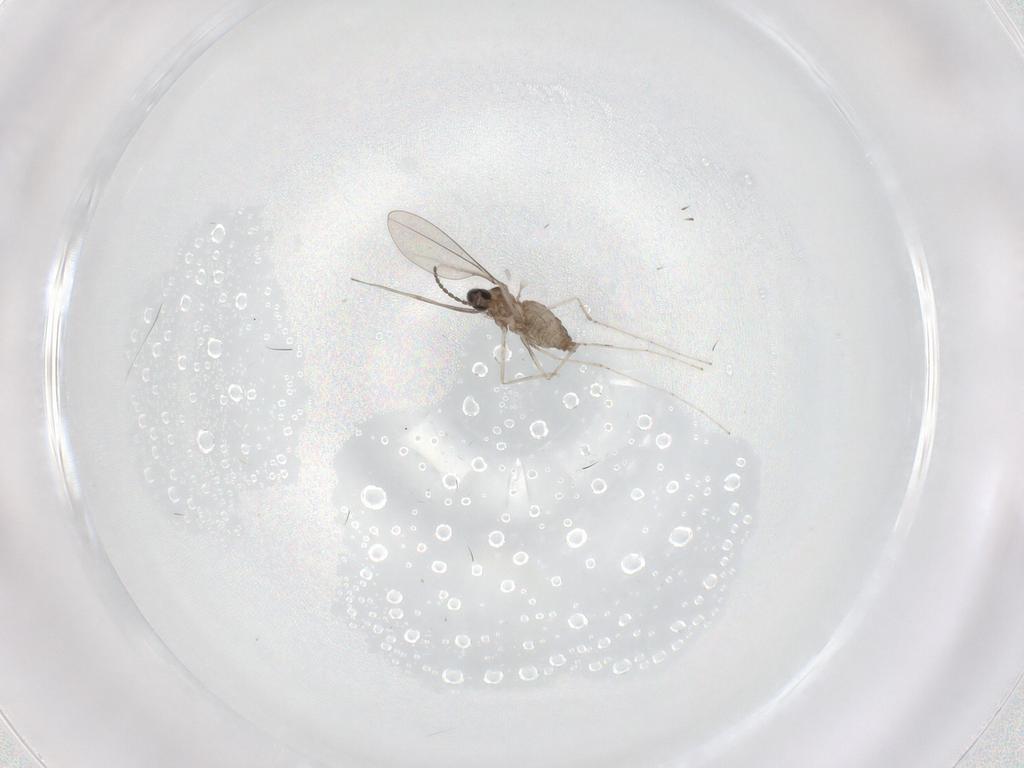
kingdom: Animalia
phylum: Arthropoda
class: Insecta
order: Diptera
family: Cecidomyiidae
